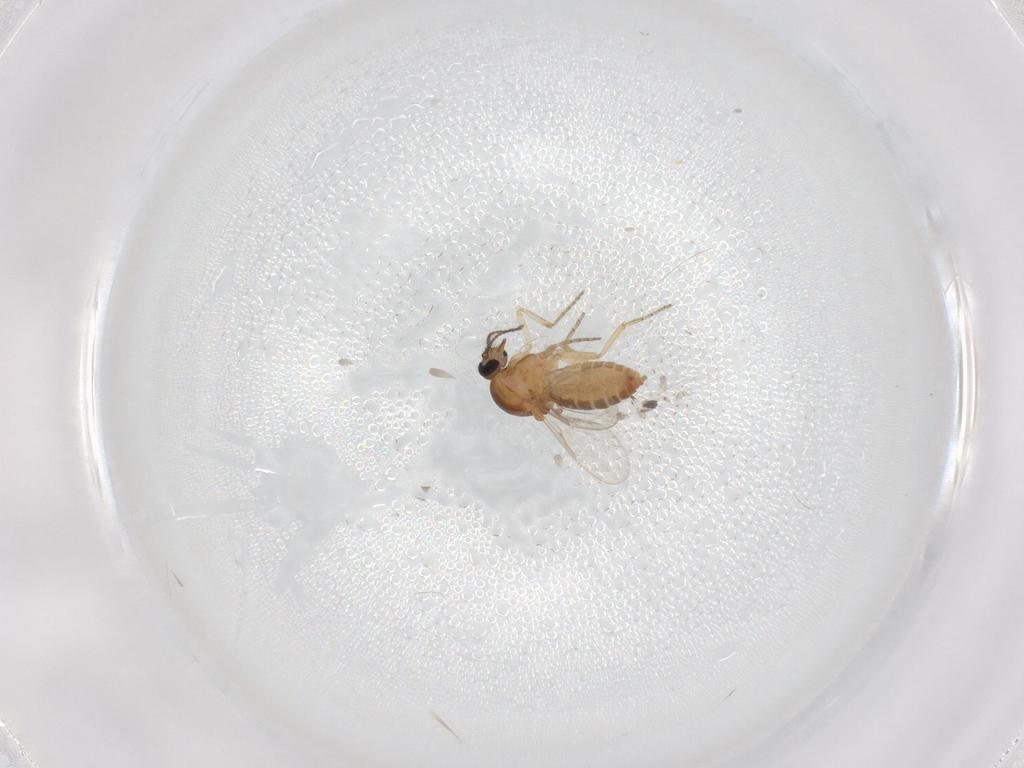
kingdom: Animalia
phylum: Arthropoda
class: Insecta
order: Diptera
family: Ceratopogonidae
